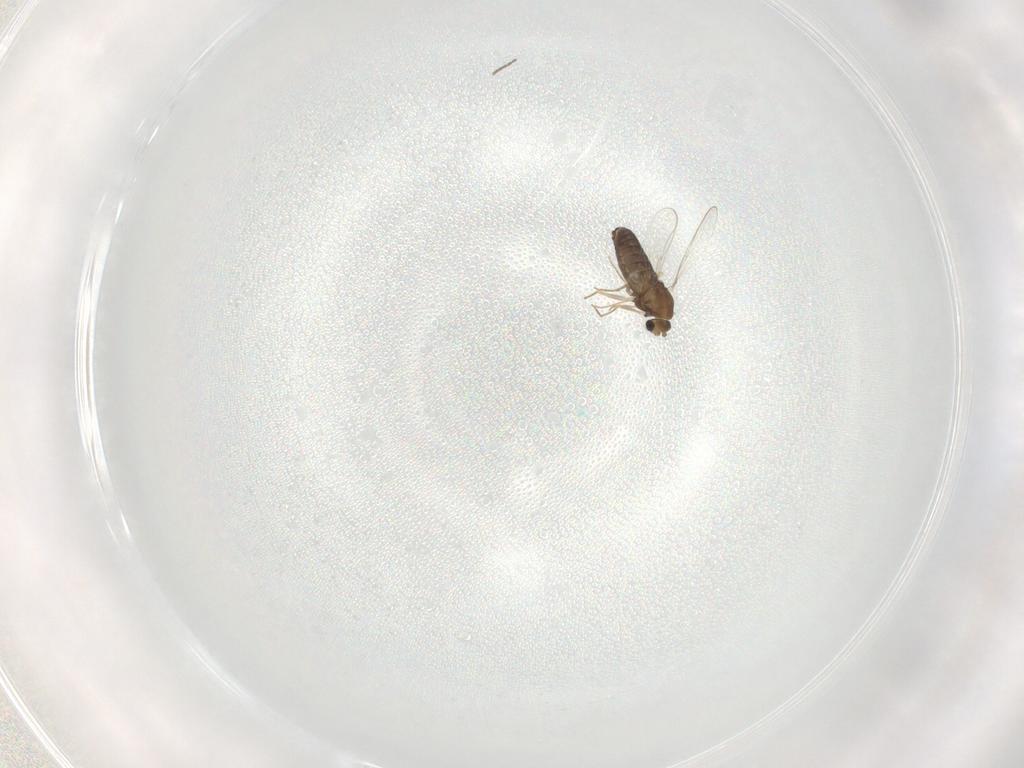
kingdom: Animalia
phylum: Arthropoda
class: Insecta
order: Diptera
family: Cecidomyiidae
